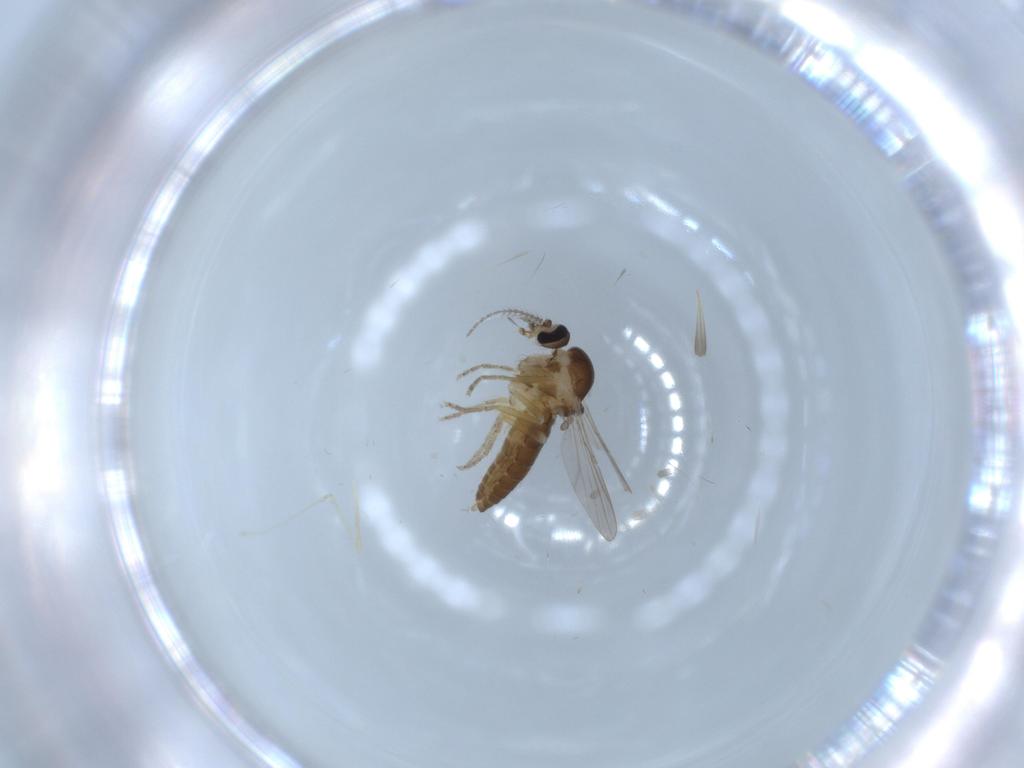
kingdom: Animalia
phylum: Arthropoda
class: Insecta
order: Diptera
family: Ceratopogonidae
